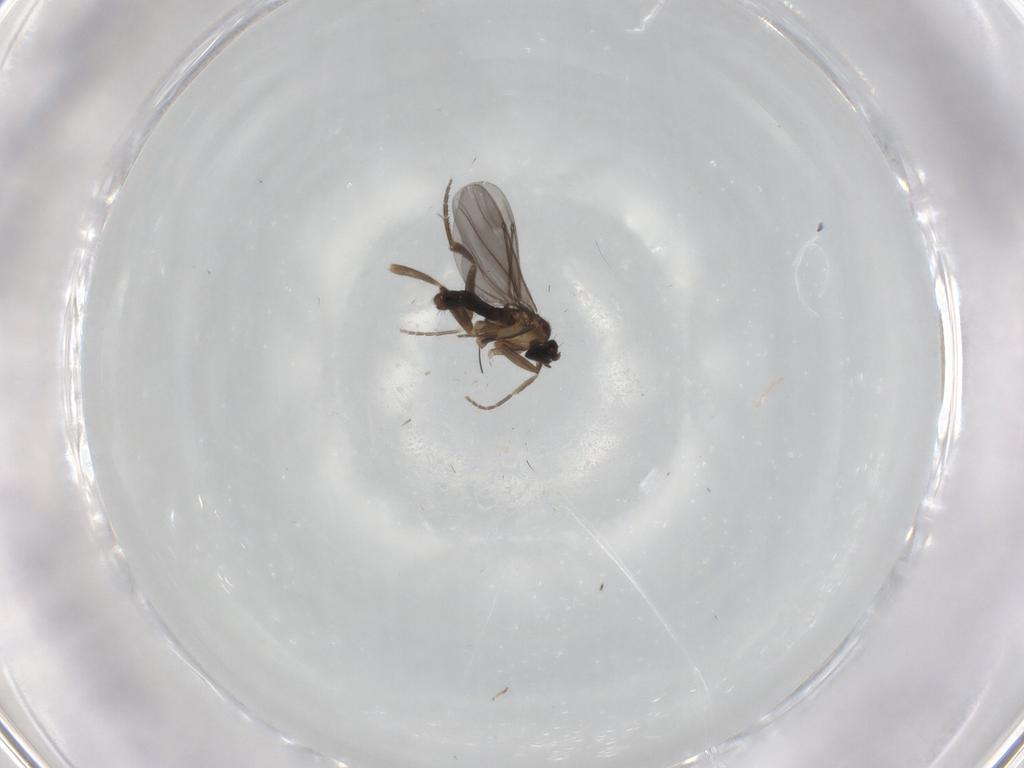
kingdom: Animalia
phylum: Arthropoda
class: Insecta
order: Diptera
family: Phoridae
